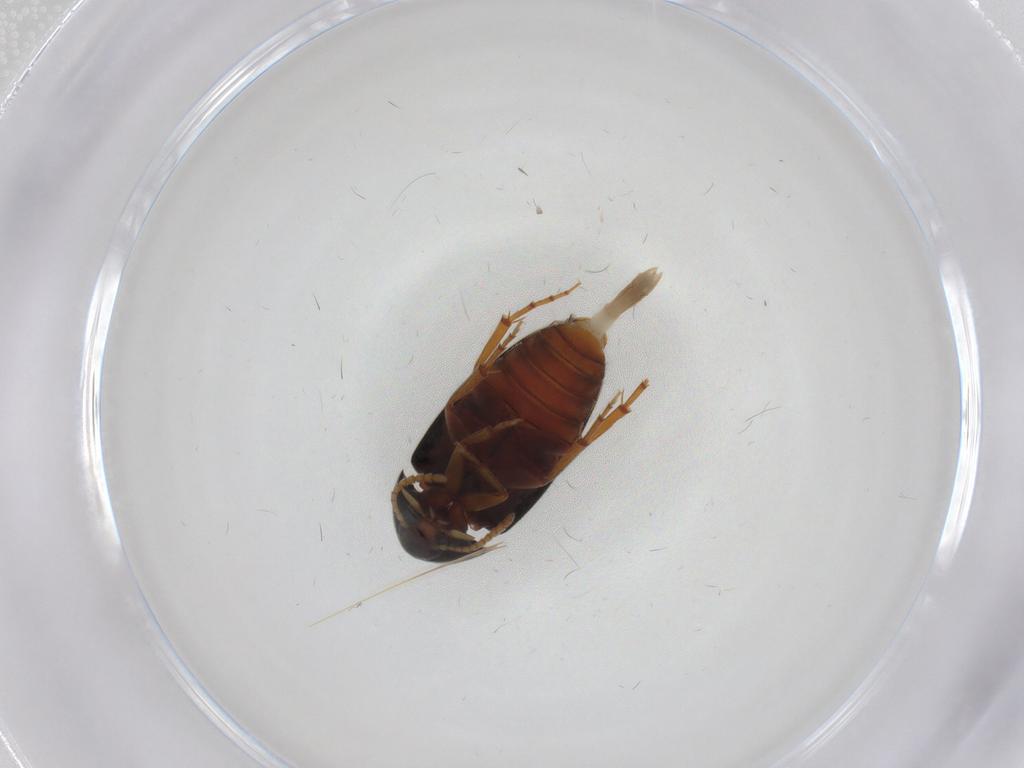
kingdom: Animalia
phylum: Arthropoda
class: Insecta
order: Coleoptera
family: Scraptiidae
